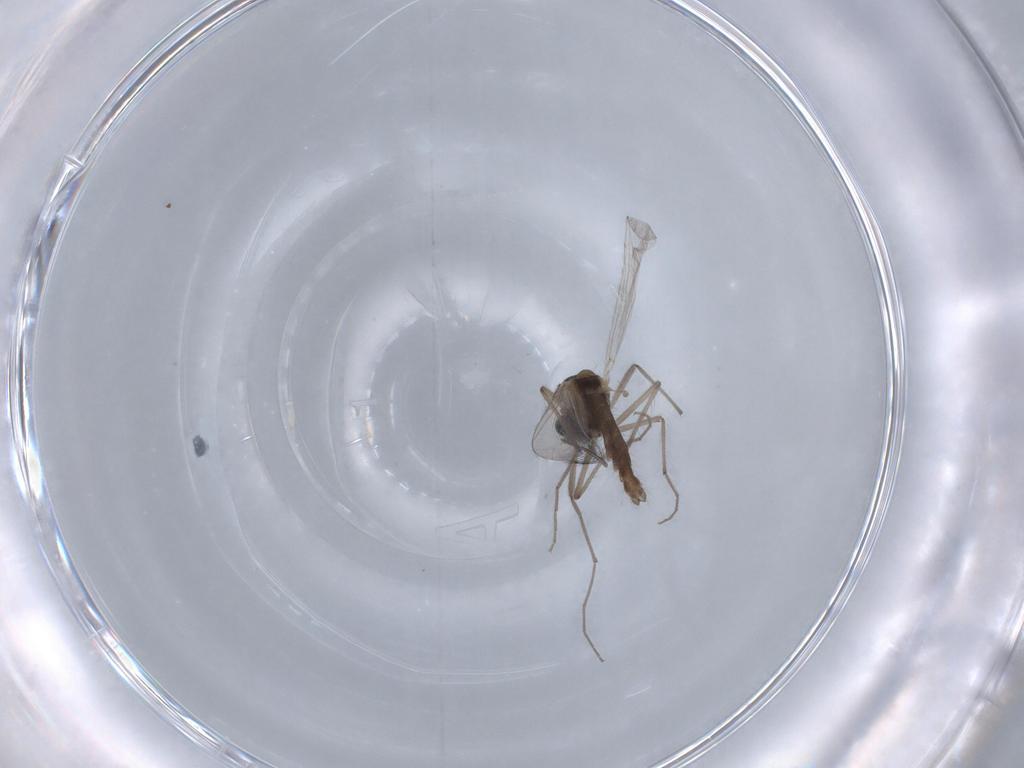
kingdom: Animalia
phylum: Arthropoda
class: Insecta
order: Diptera
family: Chironomidae
